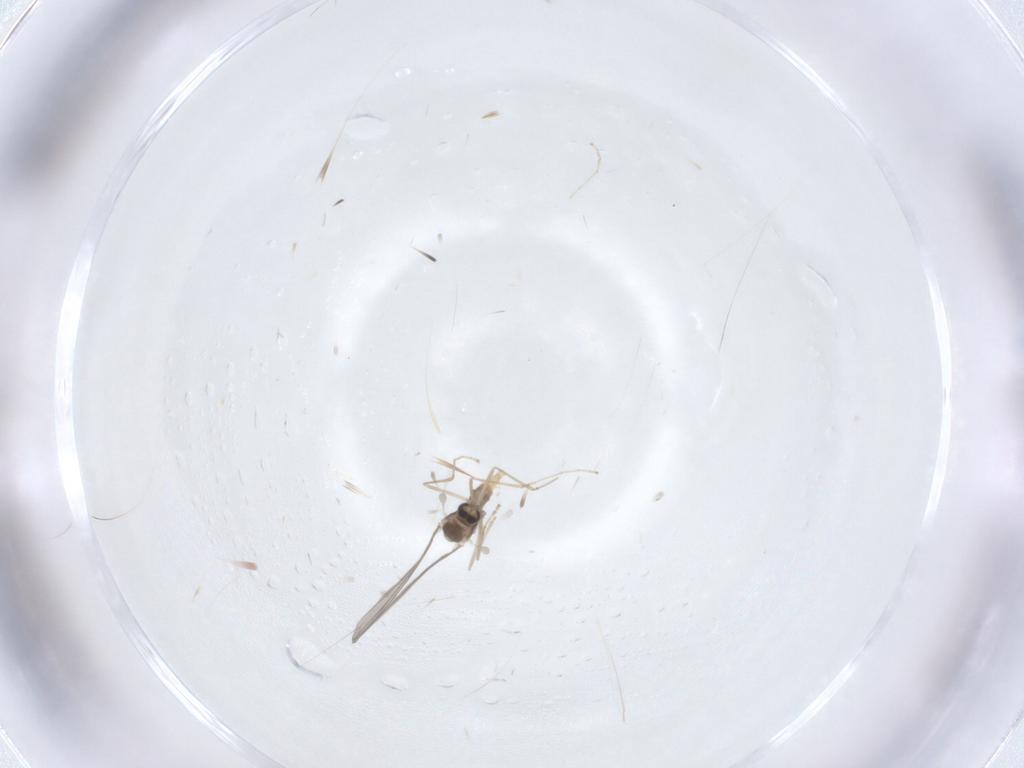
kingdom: Animalia
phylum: Arthropoda
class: Insecta
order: Diptera
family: Cecidomyiidae
